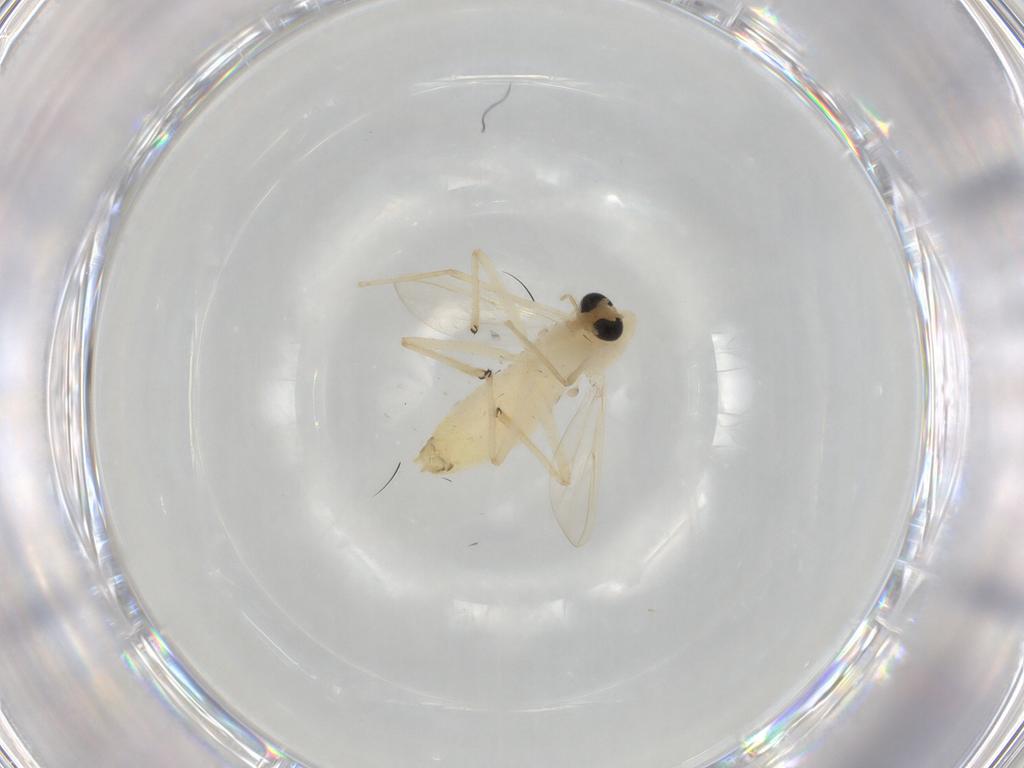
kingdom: Animalia
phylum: Arthropoda
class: Insecta
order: Diptera
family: Chironomidae
